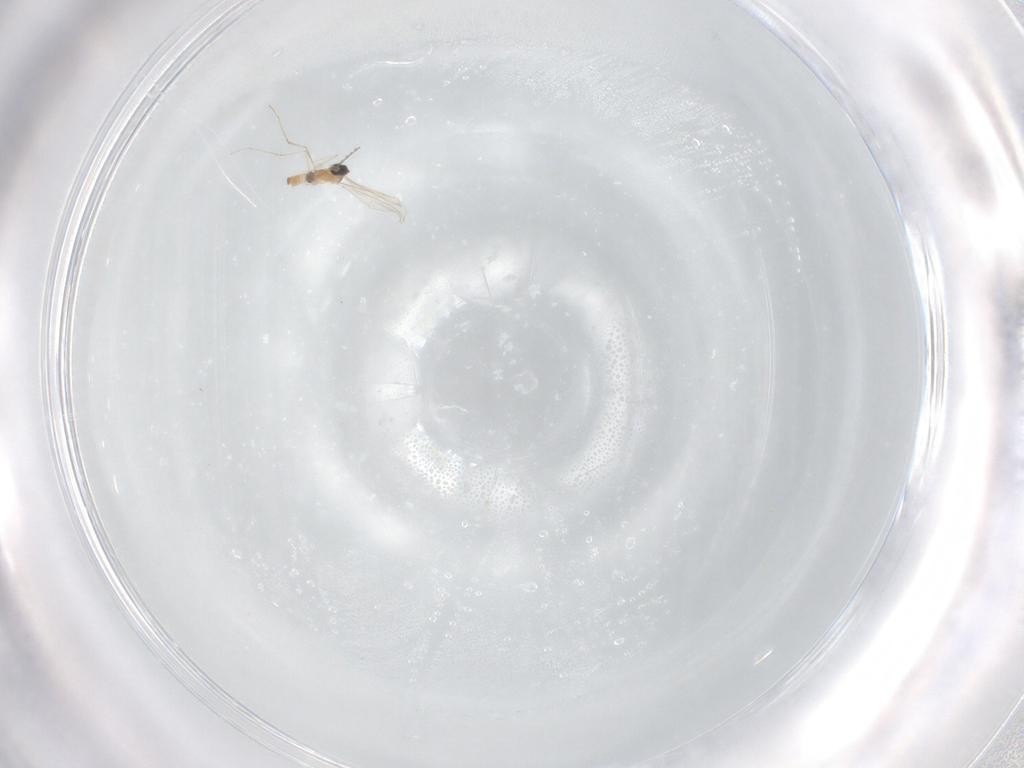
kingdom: Animalia
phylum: Arthropoda
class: Insecta
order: Diptera
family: Cecidomyiidae
